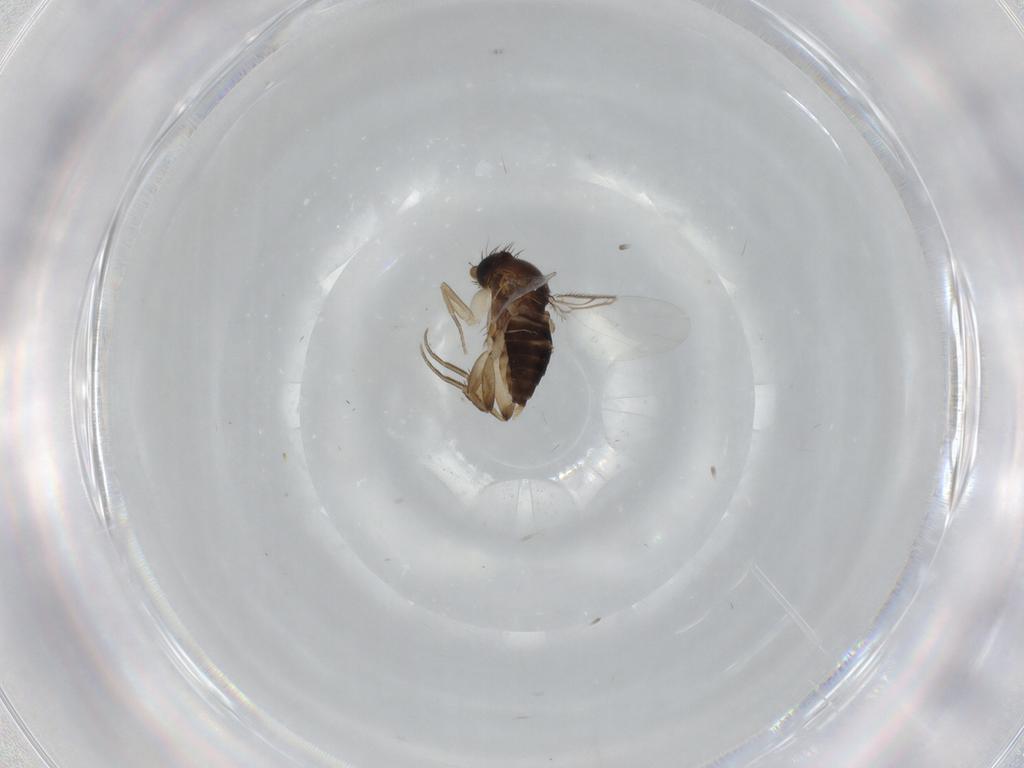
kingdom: Animalia
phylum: Arthropoda
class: Insecta
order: Diptera
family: Phoridae
